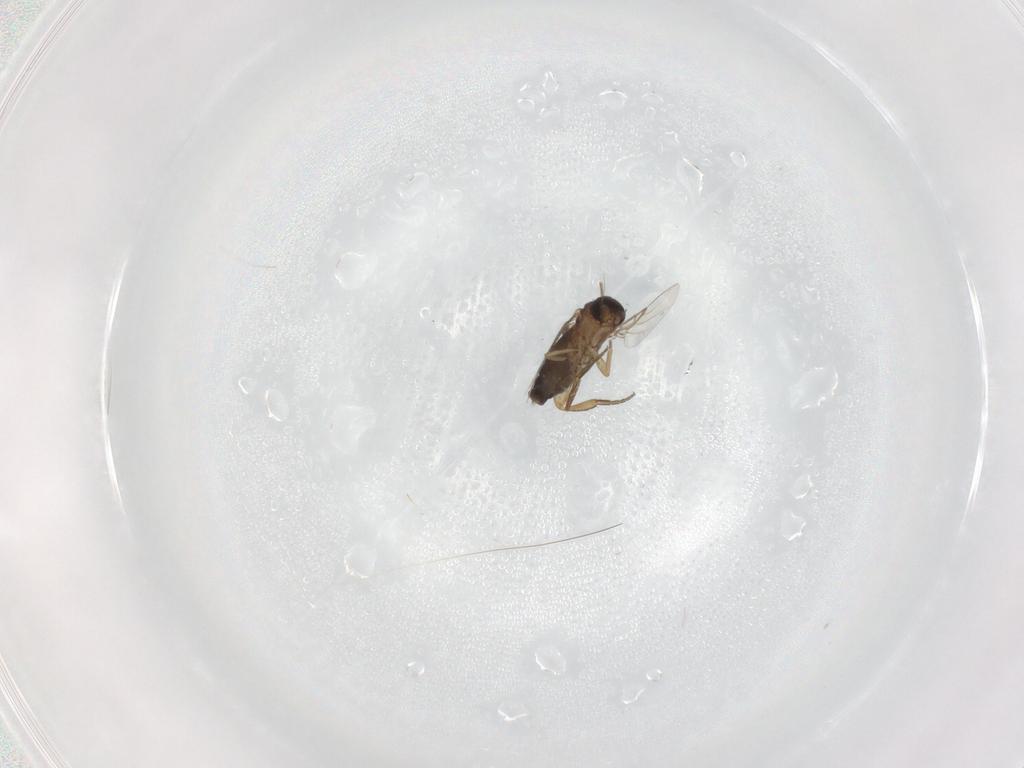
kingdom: Animalia
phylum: Arthropoda
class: Insecta
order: Diptera
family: Phoridae
